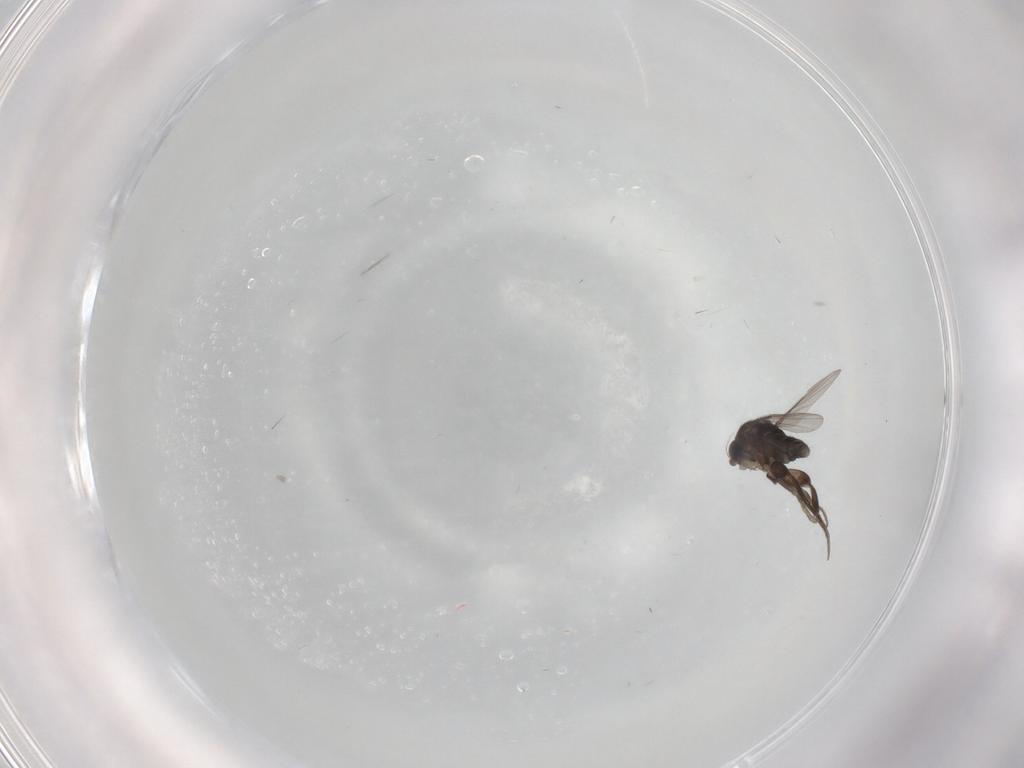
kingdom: Animalia
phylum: Arthropoda
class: Insecta
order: Diptera
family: Phoridae
